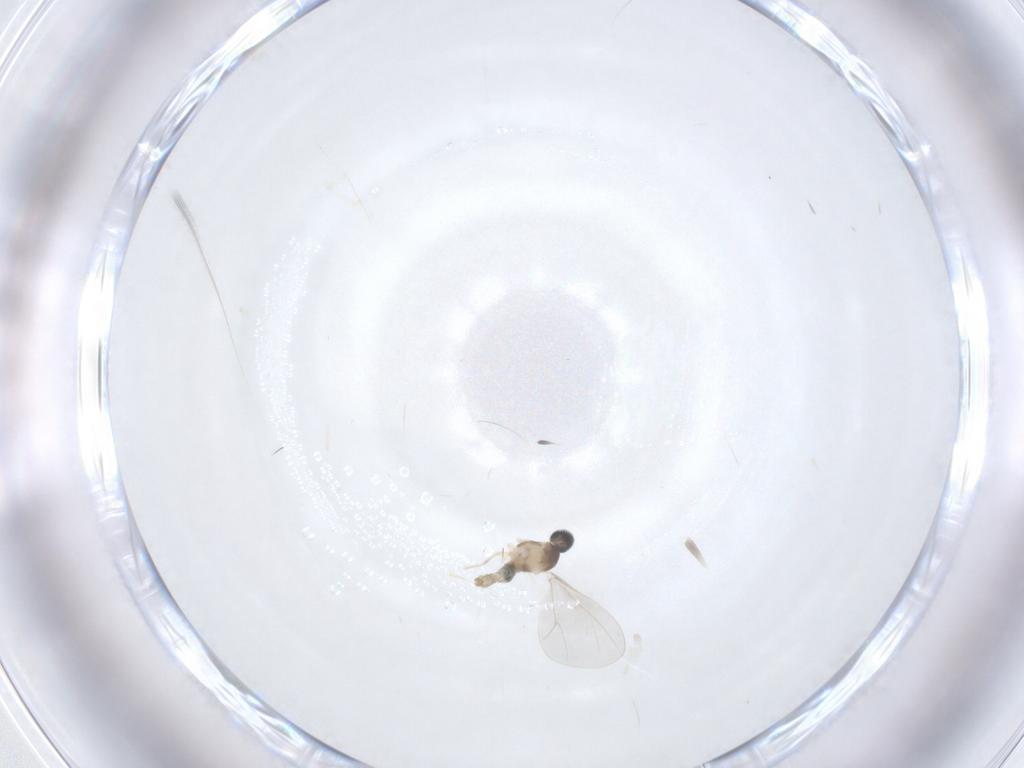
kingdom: Animalia
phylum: Arthropoda
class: Insecta
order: Diptera
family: Cecidomyiidae
